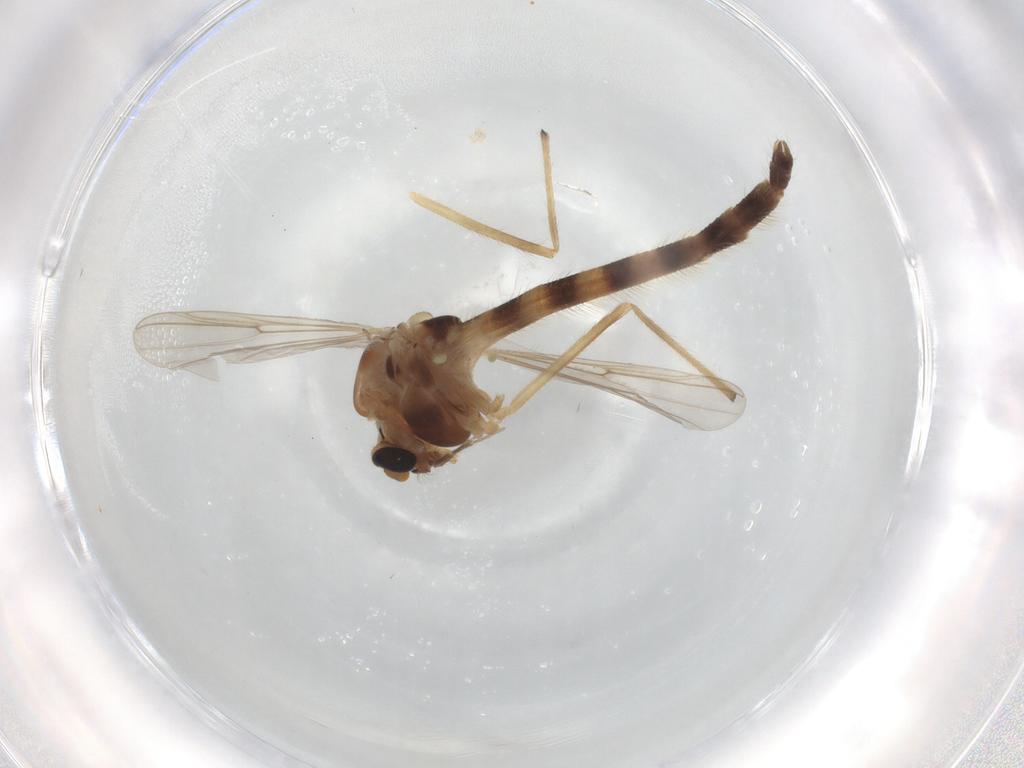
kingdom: Animalia
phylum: Arthropoda
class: Insecta
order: Diptera
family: Chironomidae
